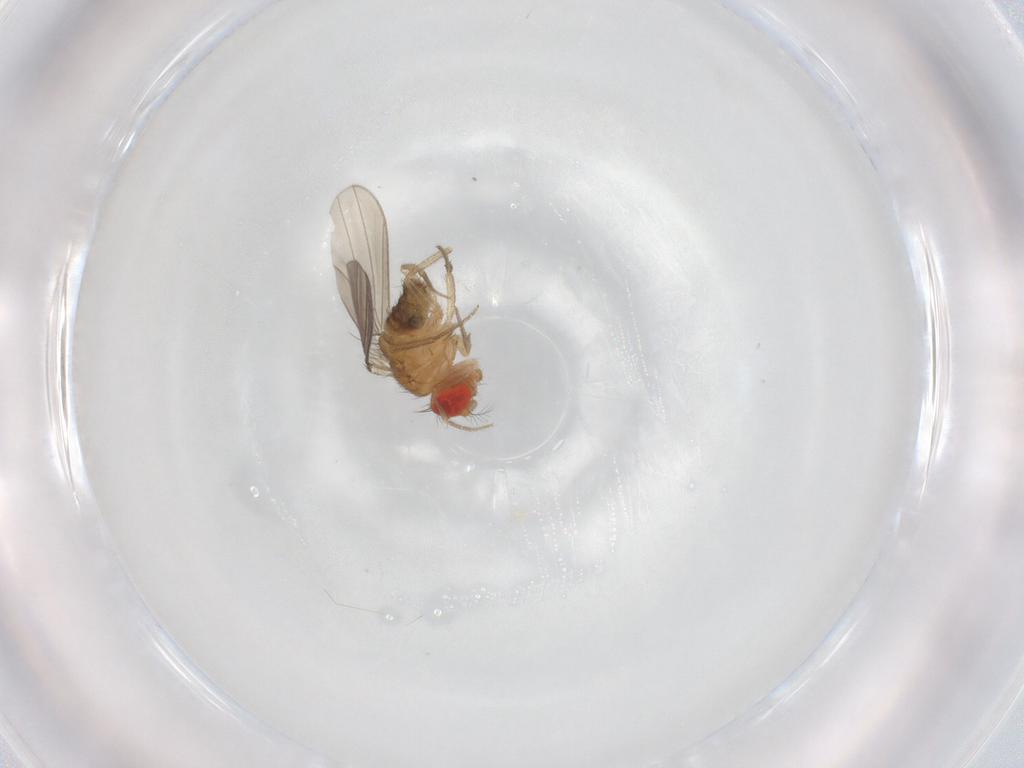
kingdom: Animalia
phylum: Arthropoda
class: Insecta
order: Diptera
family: Drosophilidae
